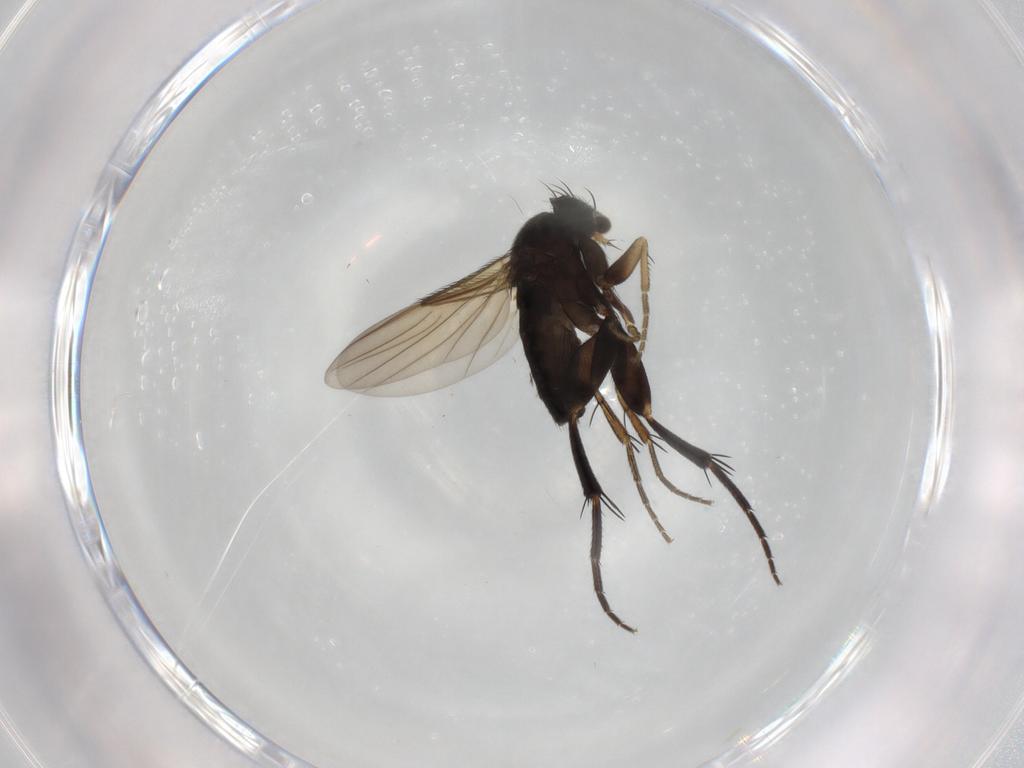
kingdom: Animalia
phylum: Arthropoda
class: Insecta
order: Diptera
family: Phoridae
